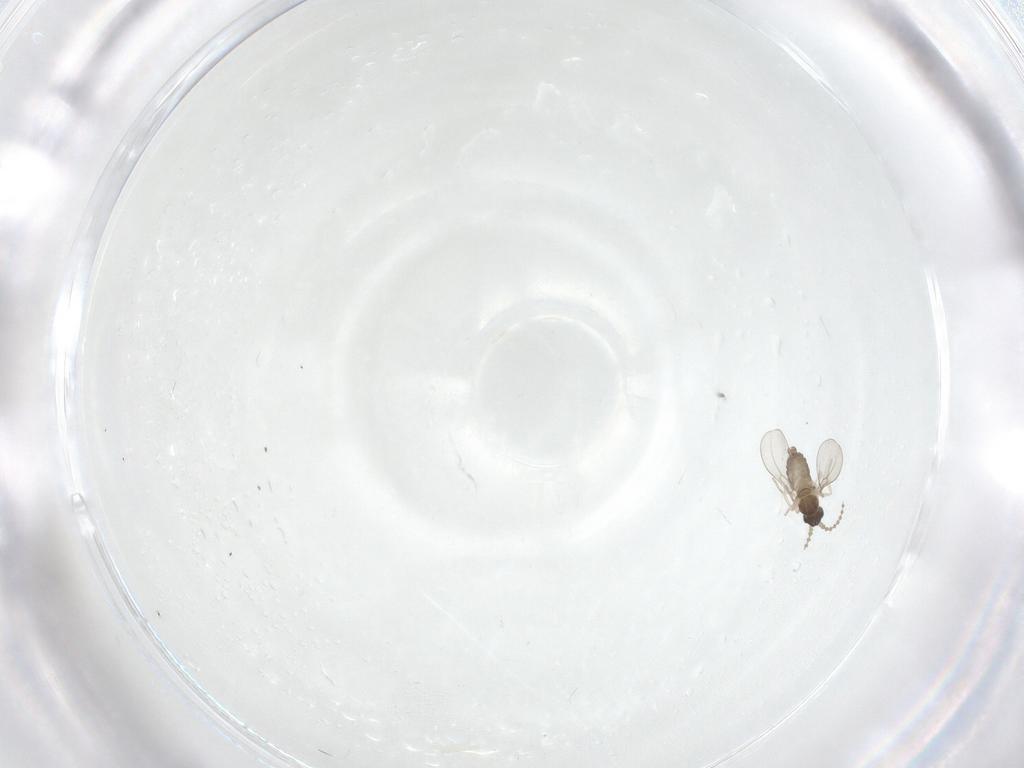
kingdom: Animalia
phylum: Arthropoda
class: Insecta
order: Diptera
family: Cecidomyiidae
